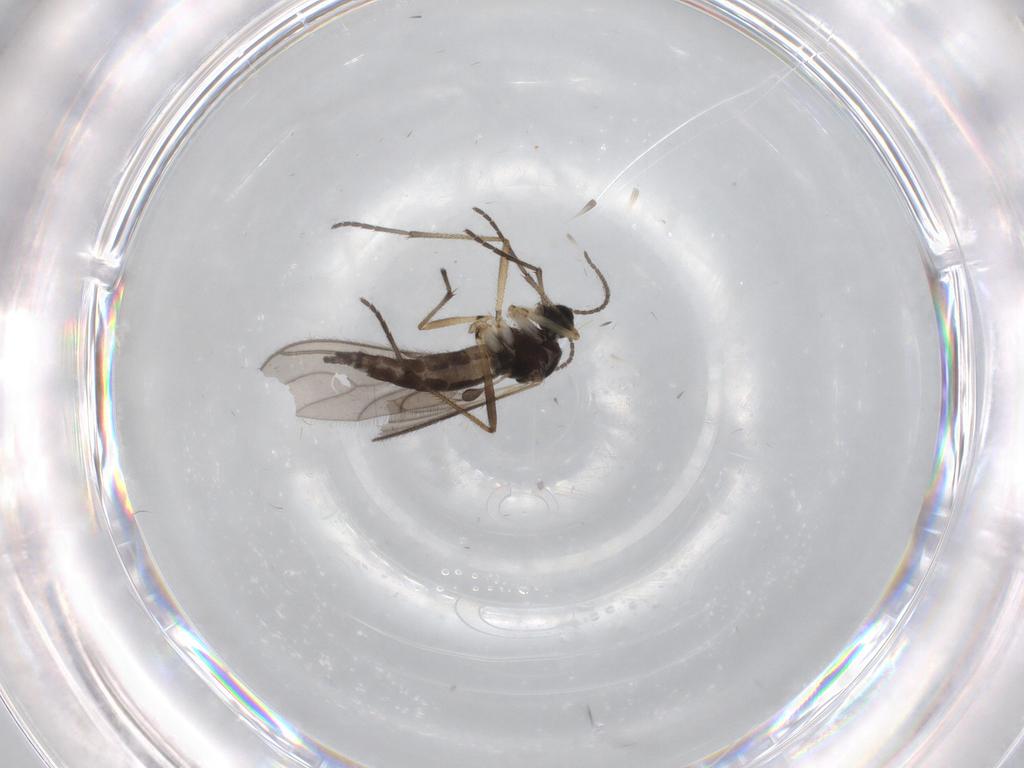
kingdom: Animalia
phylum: Arthropoda
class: Insecta
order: Diptera
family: Sciaridae
